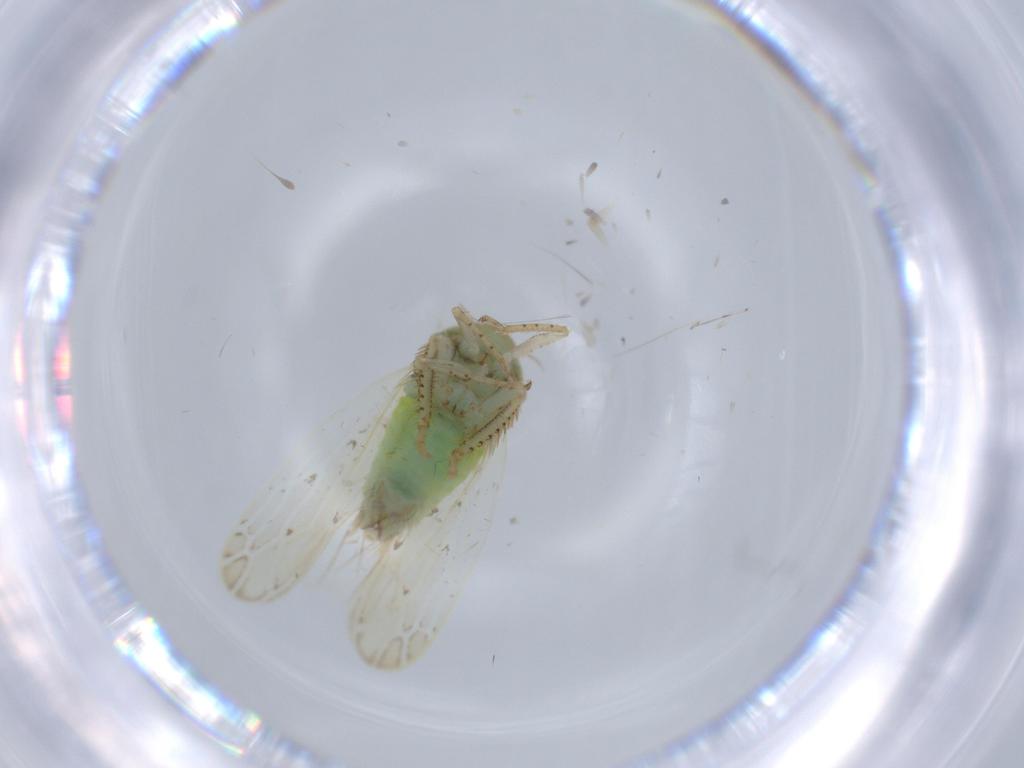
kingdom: Animalia
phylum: Arthropoda
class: Insecta
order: Hemiptera
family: Cicadellidae
